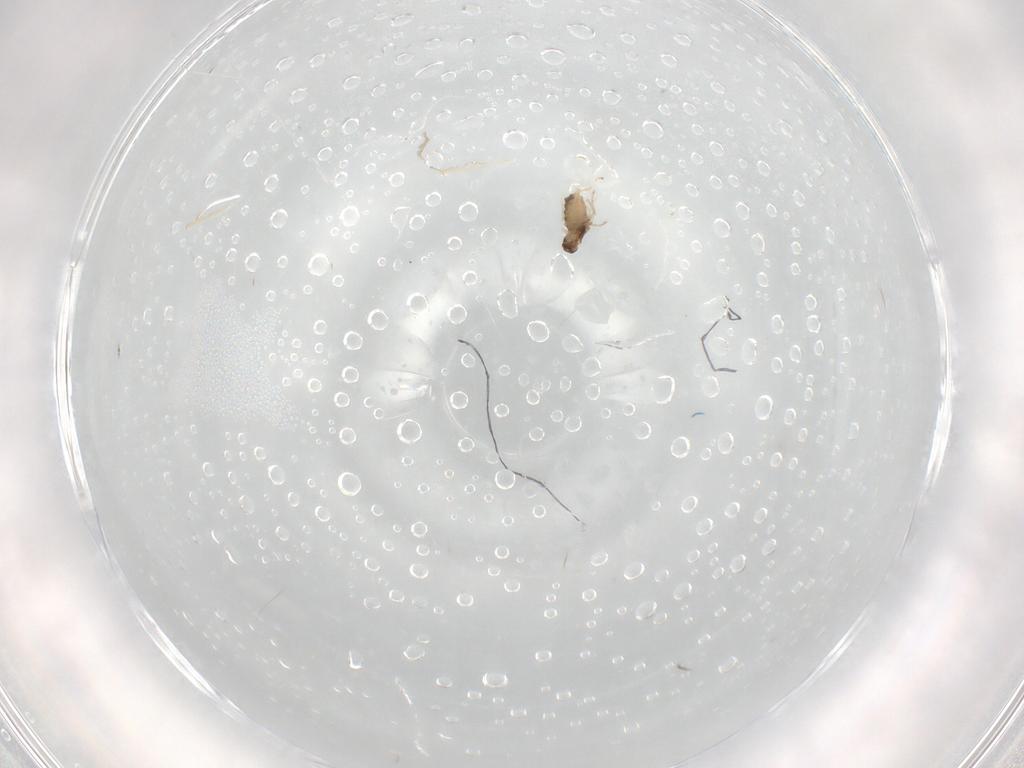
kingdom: Animalia
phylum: Arthropoda
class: Insecta
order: Diptera
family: Cecidomyiidae
